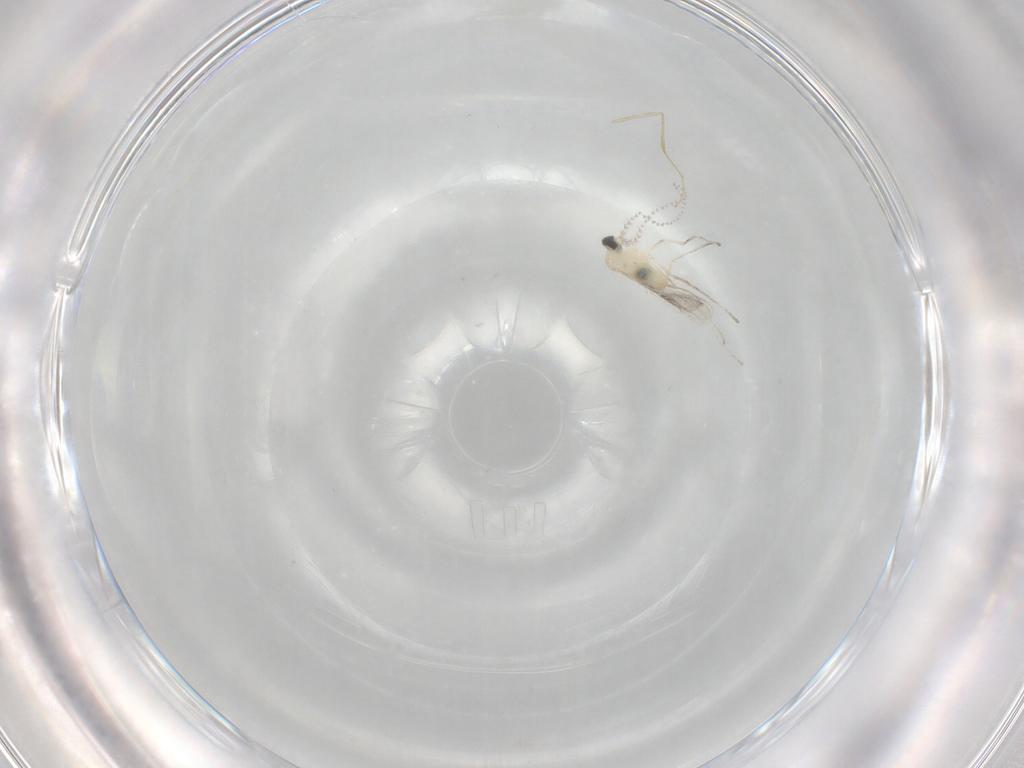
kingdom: Animalia
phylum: Arthropoda
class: Insecta
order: Diptera
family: Cecidomyiidae
